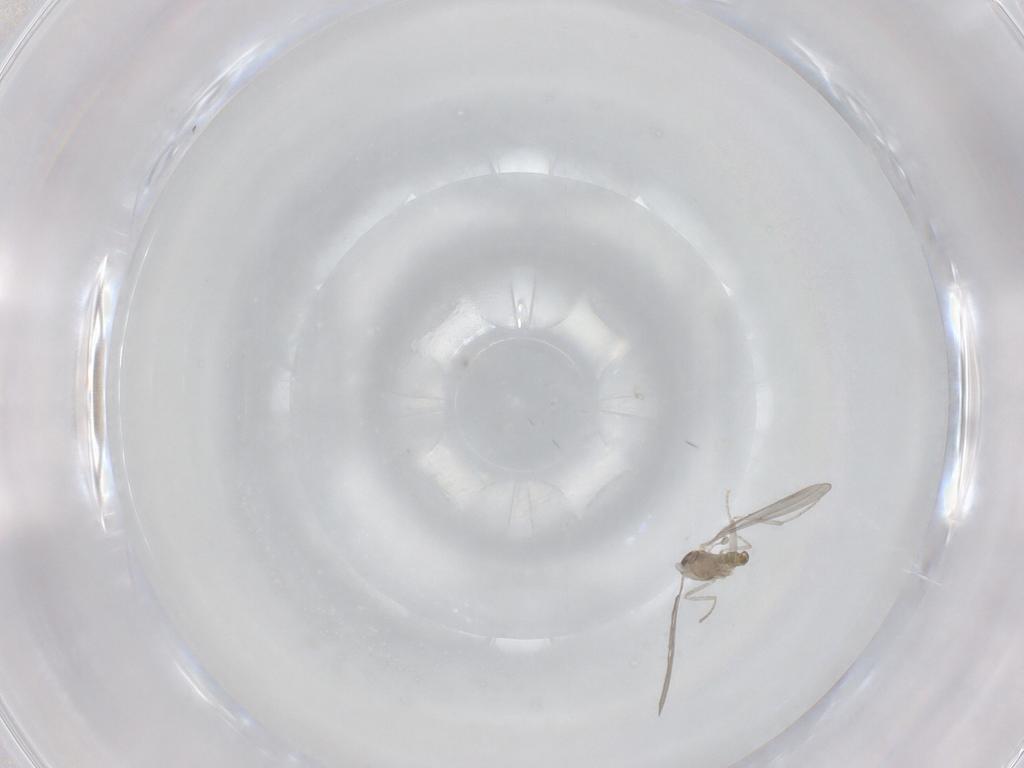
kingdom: Animalia
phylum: Arthropoda
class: Insecta
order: Diptera
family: Cecidomyiidae
